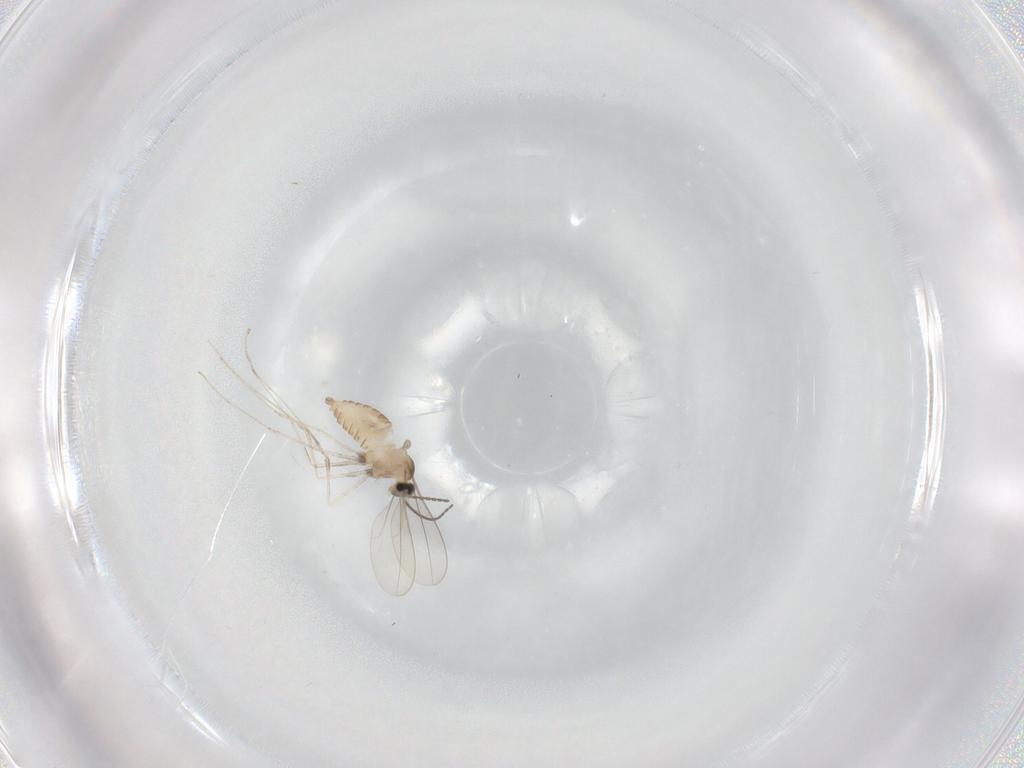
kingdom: Animalia
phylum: Arthropoda
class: Insecta
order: Diptera
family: Cecidomyiidae
